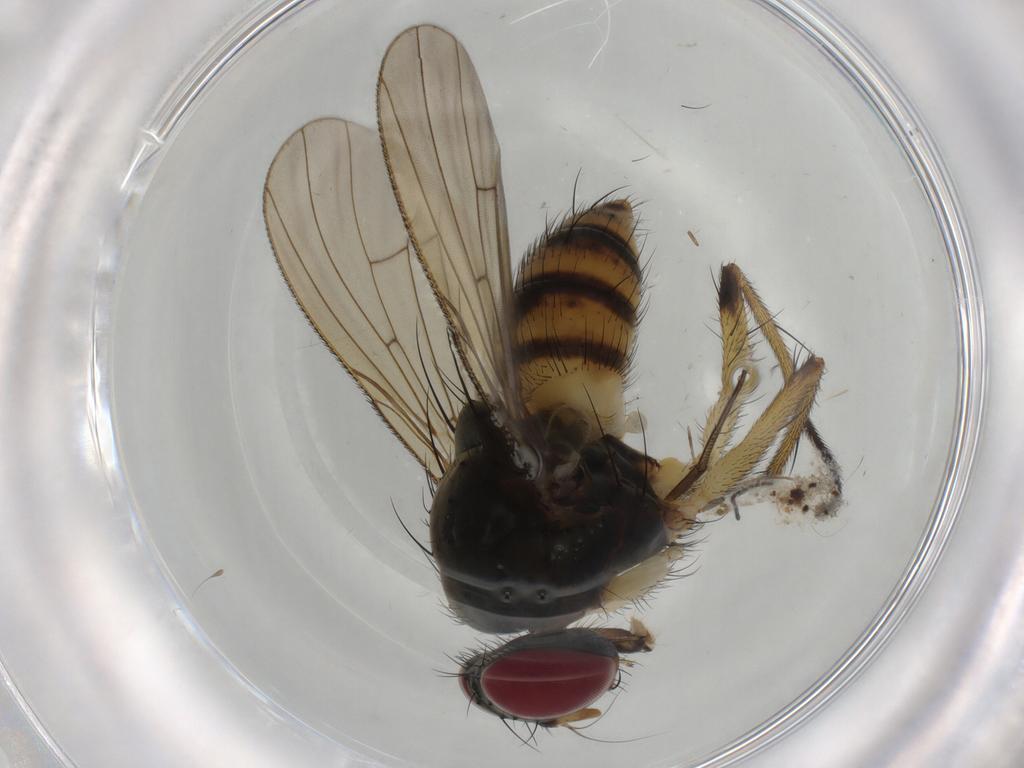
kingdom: Animalia
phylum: Arthropoda
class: Insecta
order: Diptera
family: Hybotidae
